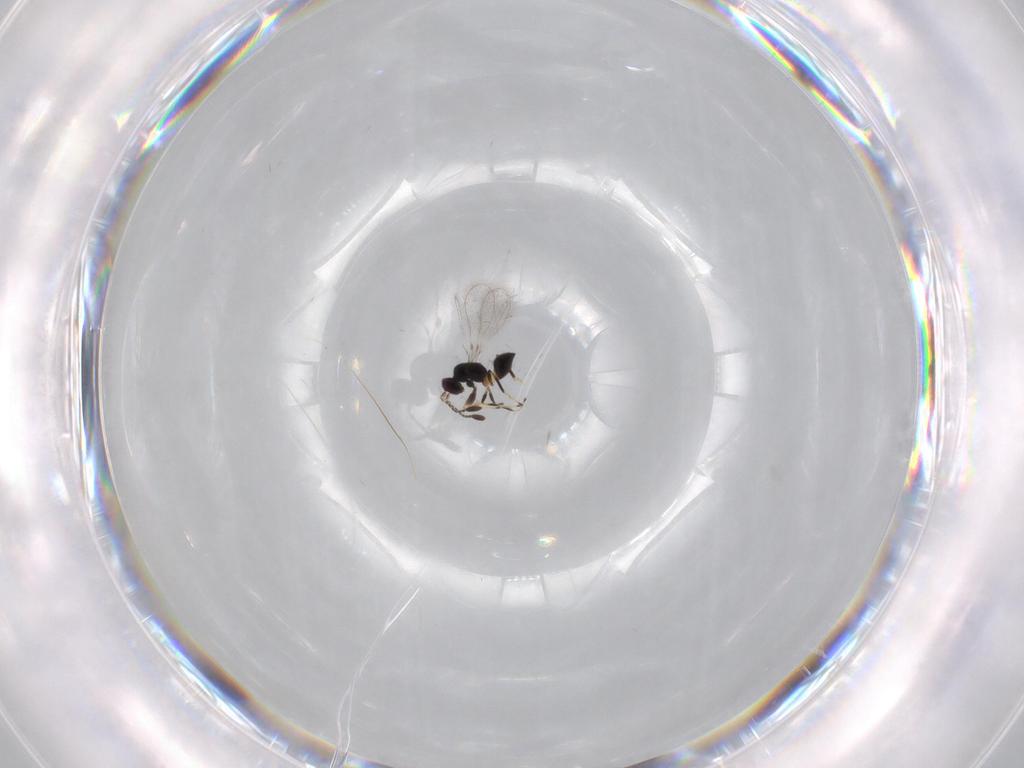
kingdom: Animalia
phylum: Arthropoda
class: Insecta
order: Hymenoptera
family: Mymaridae
